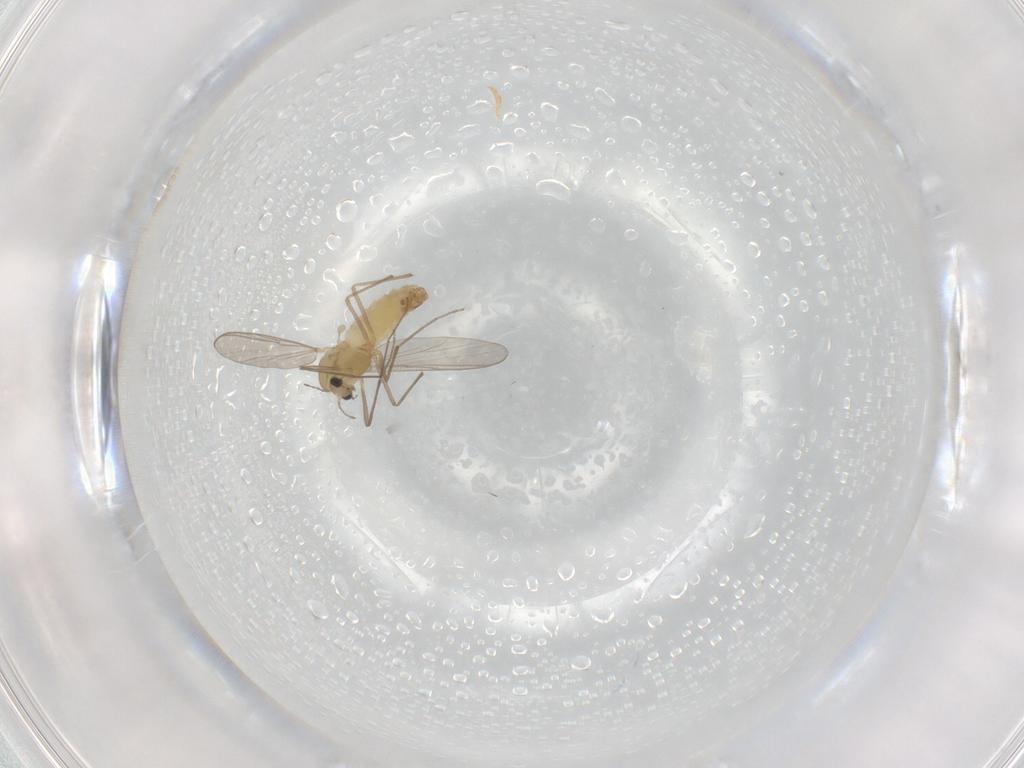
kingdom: Animalia
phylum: Arthropoda
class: Insecta
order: Diptera
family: Chironomidae
